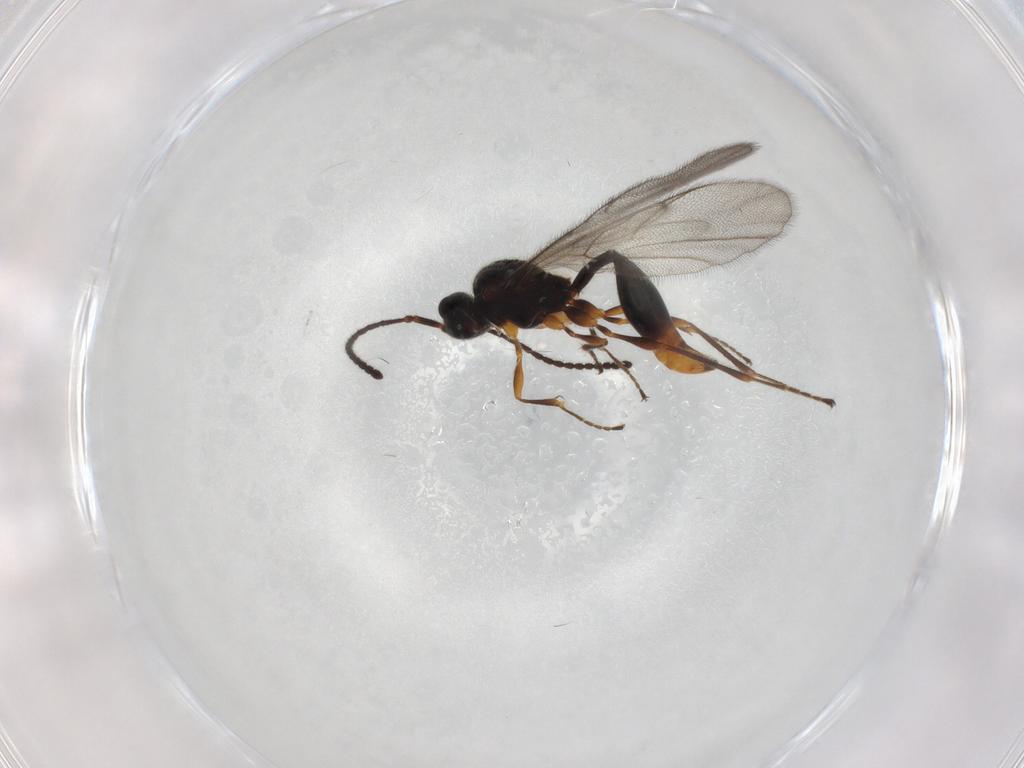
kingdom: Animalia
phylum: Arthropoda
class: Insecta
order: Hymenoptera
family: Diapriidae
